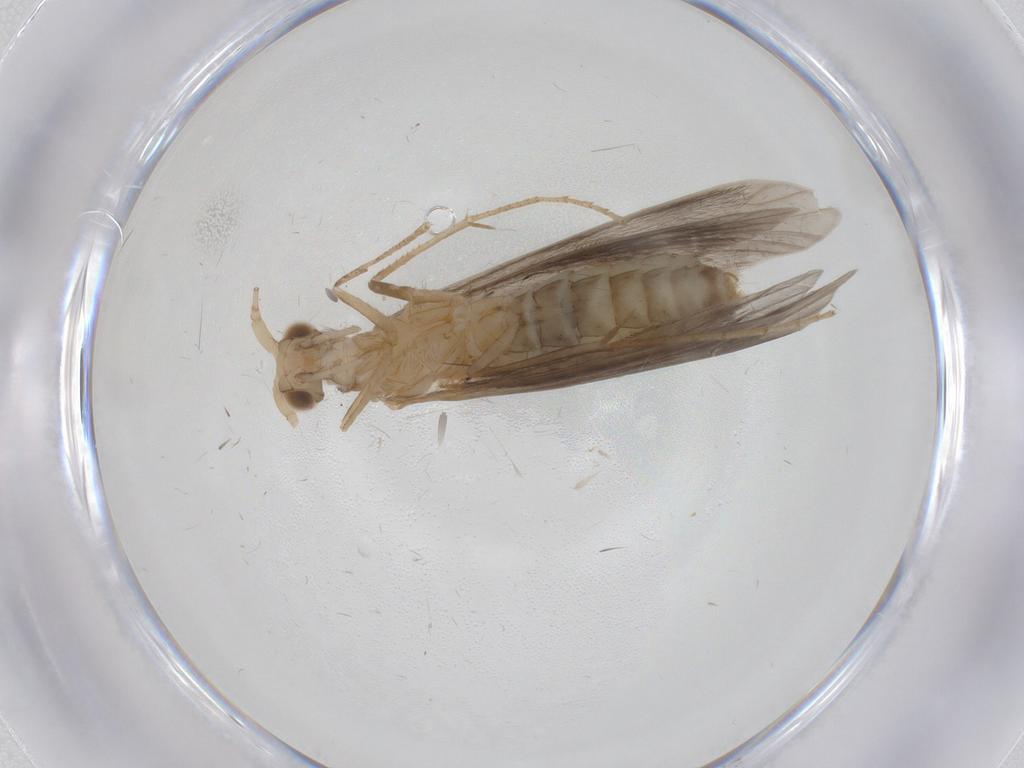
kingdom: Animalia
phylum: Arthropoda
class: Insecta
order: Trichoptera
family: Leptoceridae
